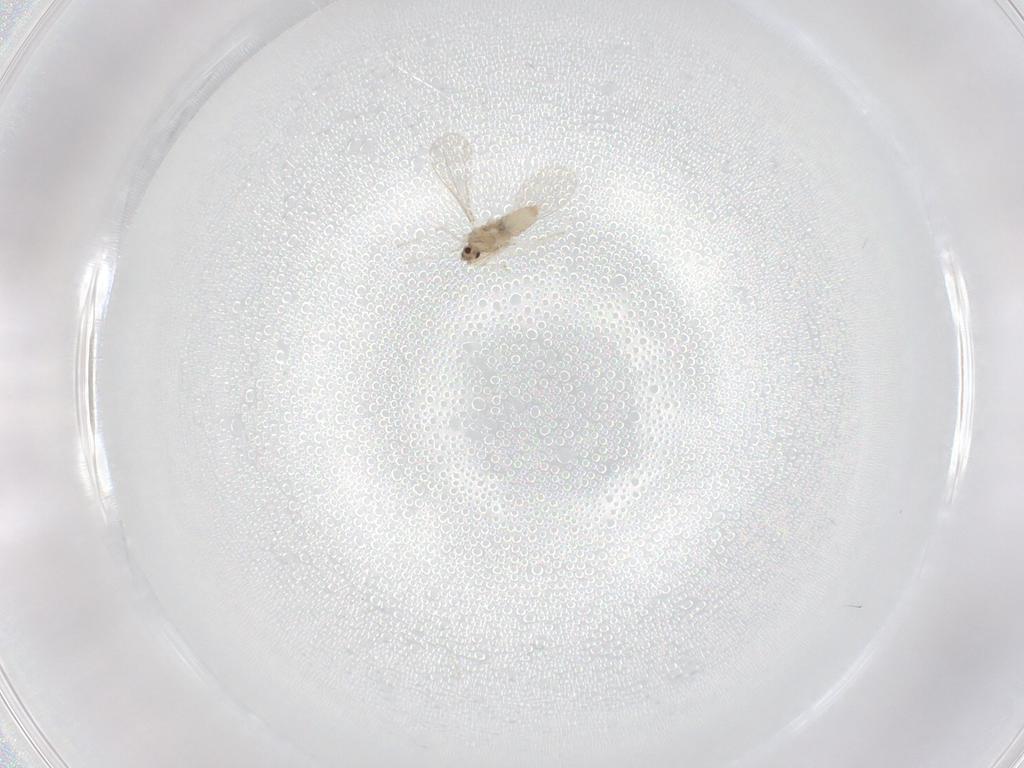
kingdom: Animalia
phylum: Arthropoda
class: Insecta
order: Diptera
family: Cecidomyiidae
